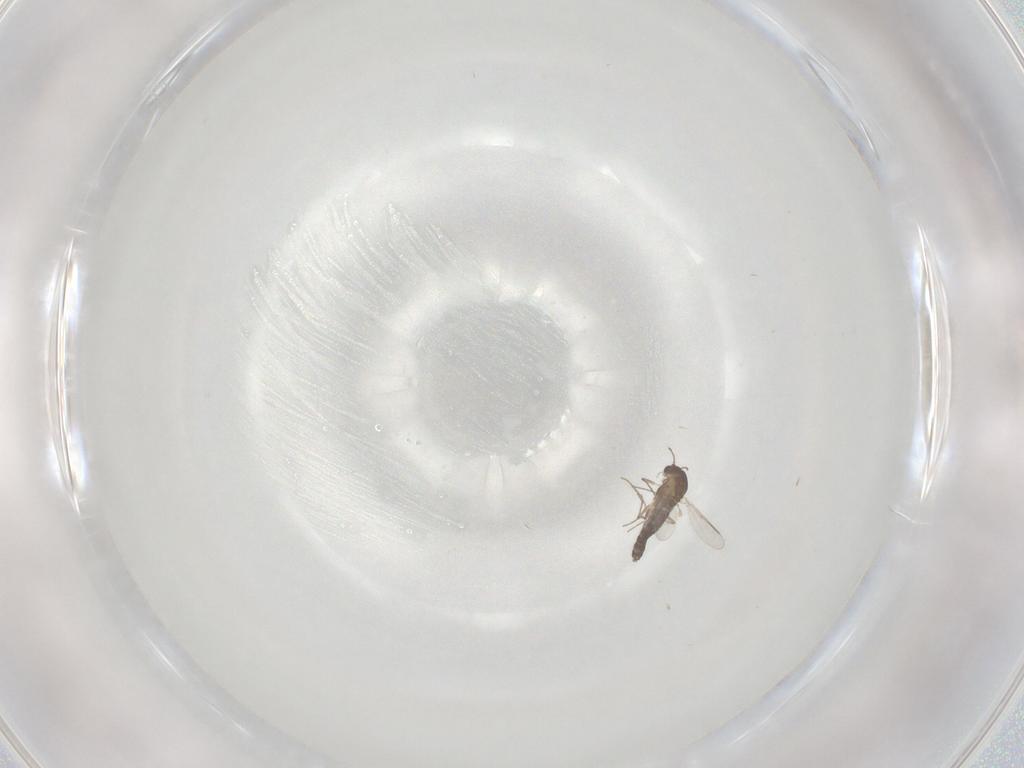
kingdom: Animalia
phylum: Arthropoda
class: Insecta
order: Diptera
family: Chironomidae
